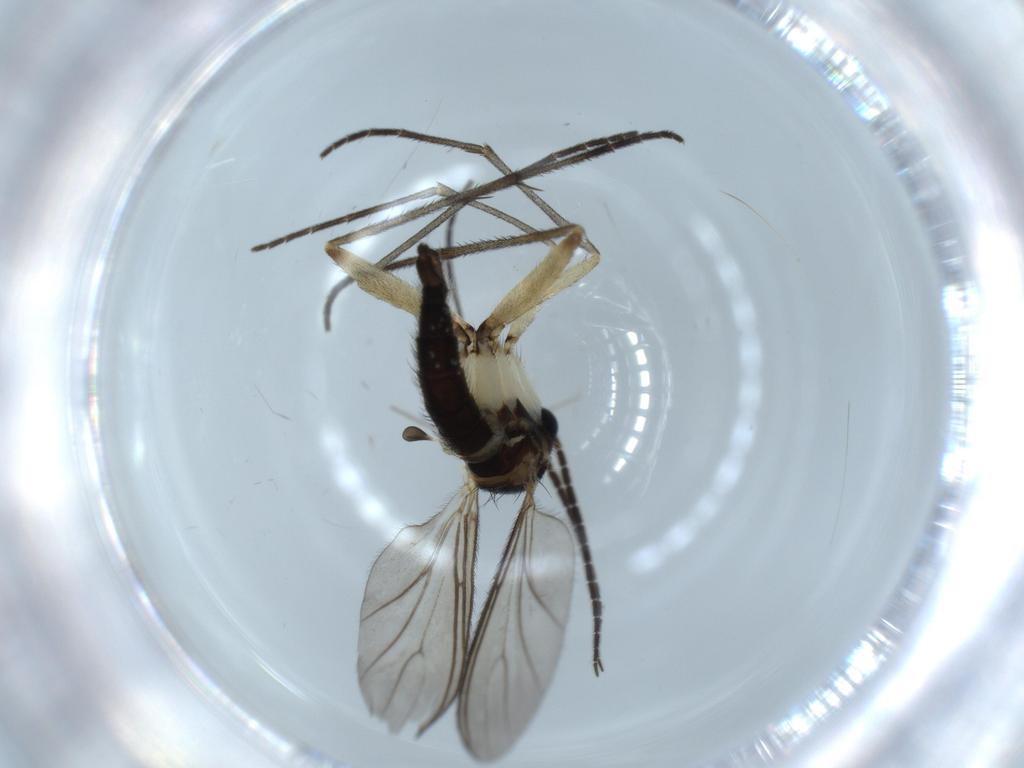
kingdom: Animalia
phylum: Arthropoda
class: Insecta
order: Diptera
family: Sciaridae
